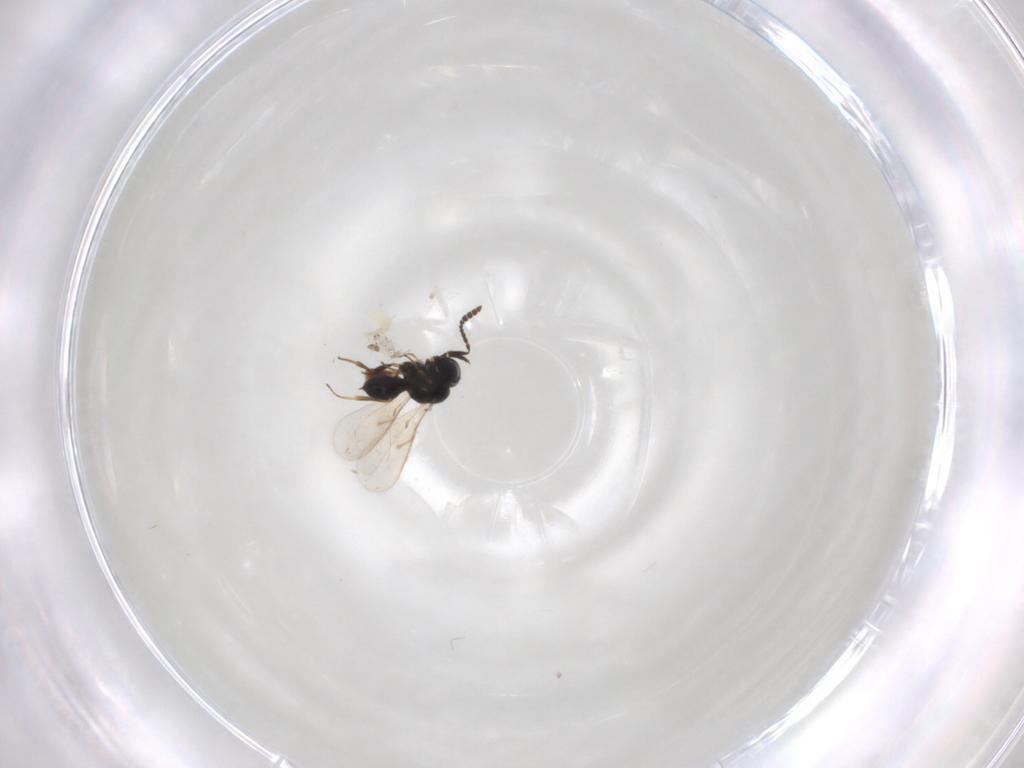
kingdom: Animalia
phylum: Arthropoda
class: Insecta
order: Hymenoptera
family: Scelionidae
